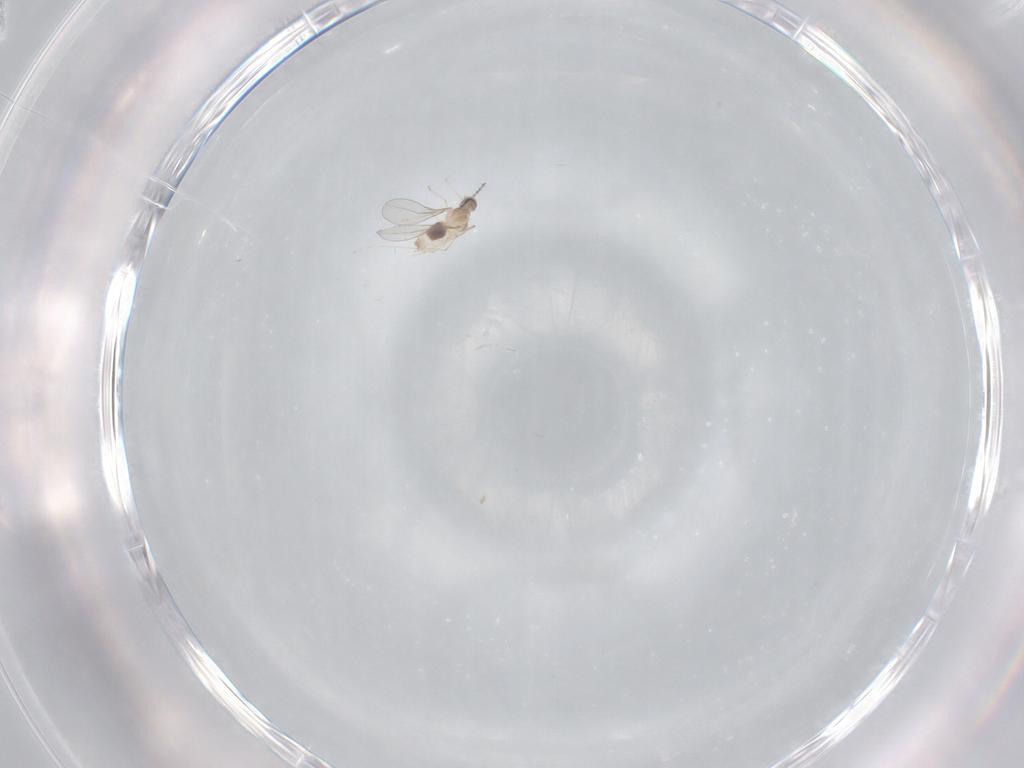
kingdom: Animalia
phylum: Arthropoda
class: Insecta
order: Diptera
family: Cecidomyiidae
